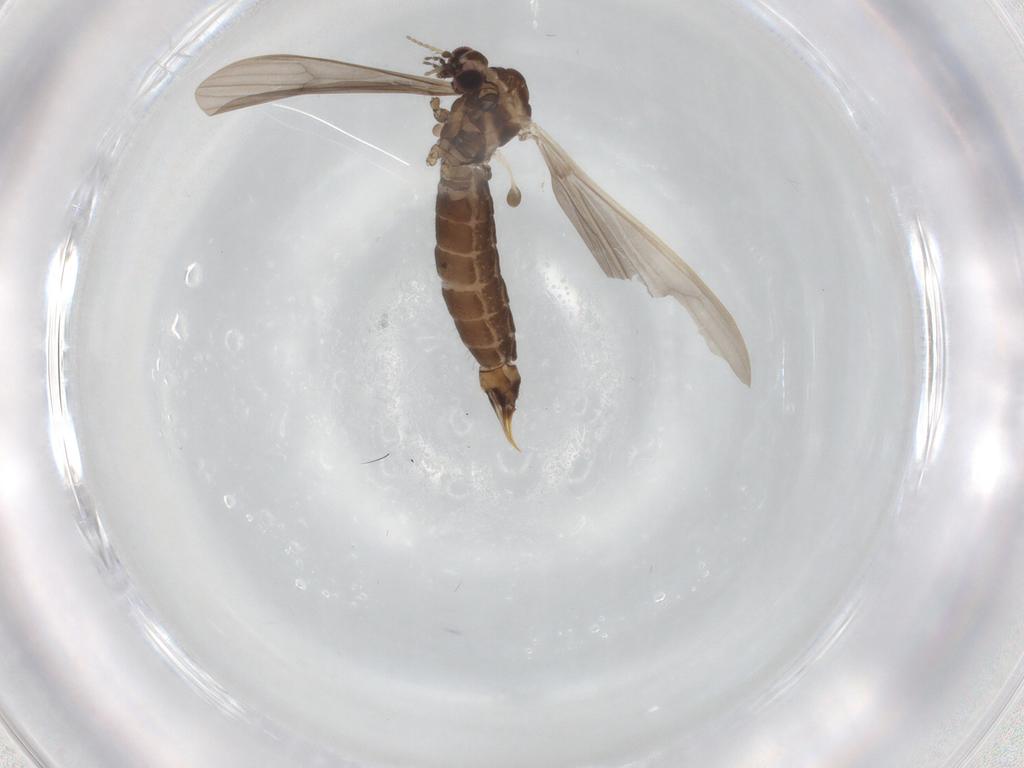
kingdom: Animalia
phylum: Arthropoda
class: Insecta
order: Diptera
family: Limoniidae
